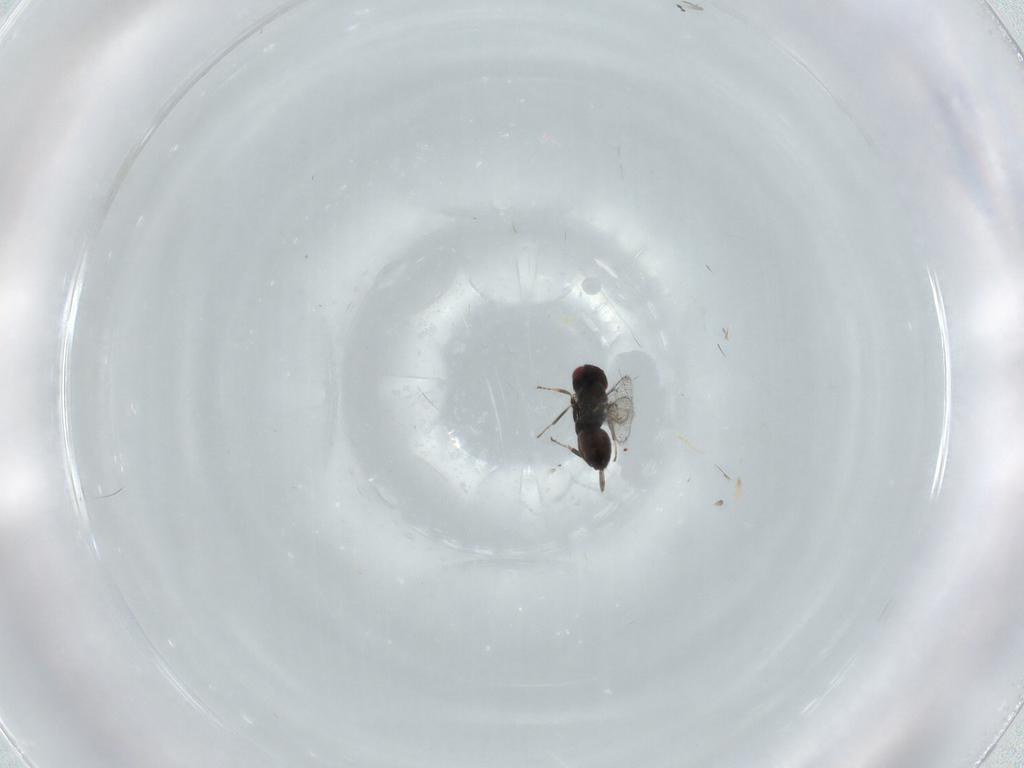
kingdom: Animalia
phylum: Arthropoda
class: Insecta
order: Hymenoptera
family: Eulophidae
